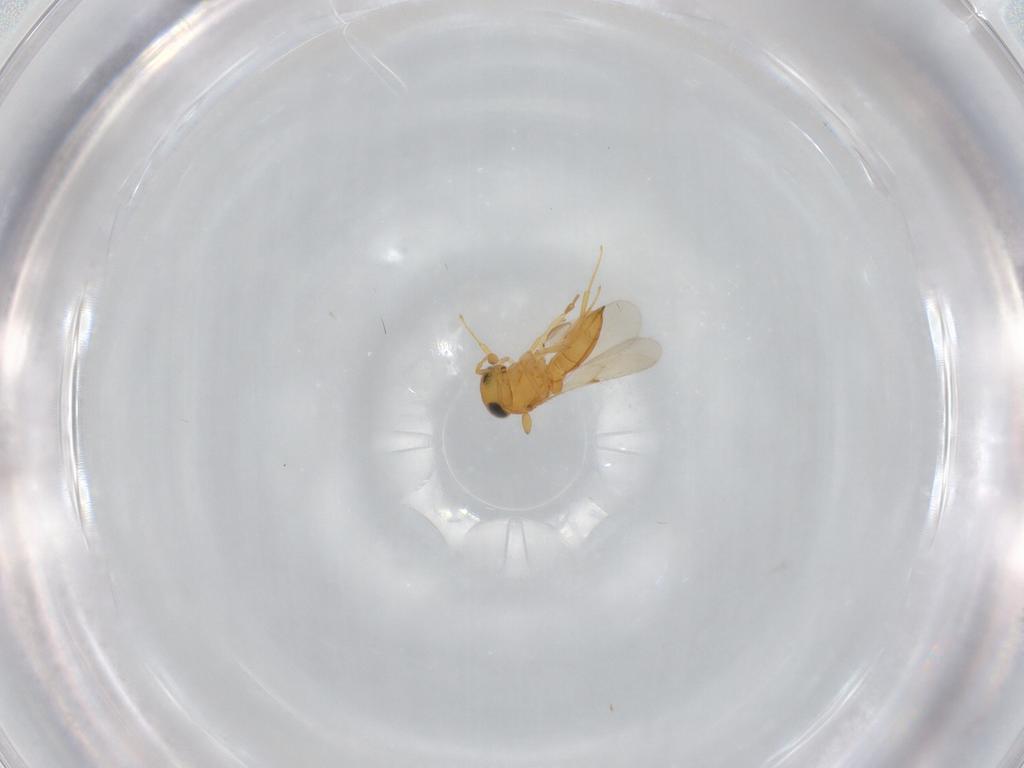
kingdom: Animalia
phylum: Arthropoda
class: Insecta
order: Hymenoptera
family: Scelionidae
